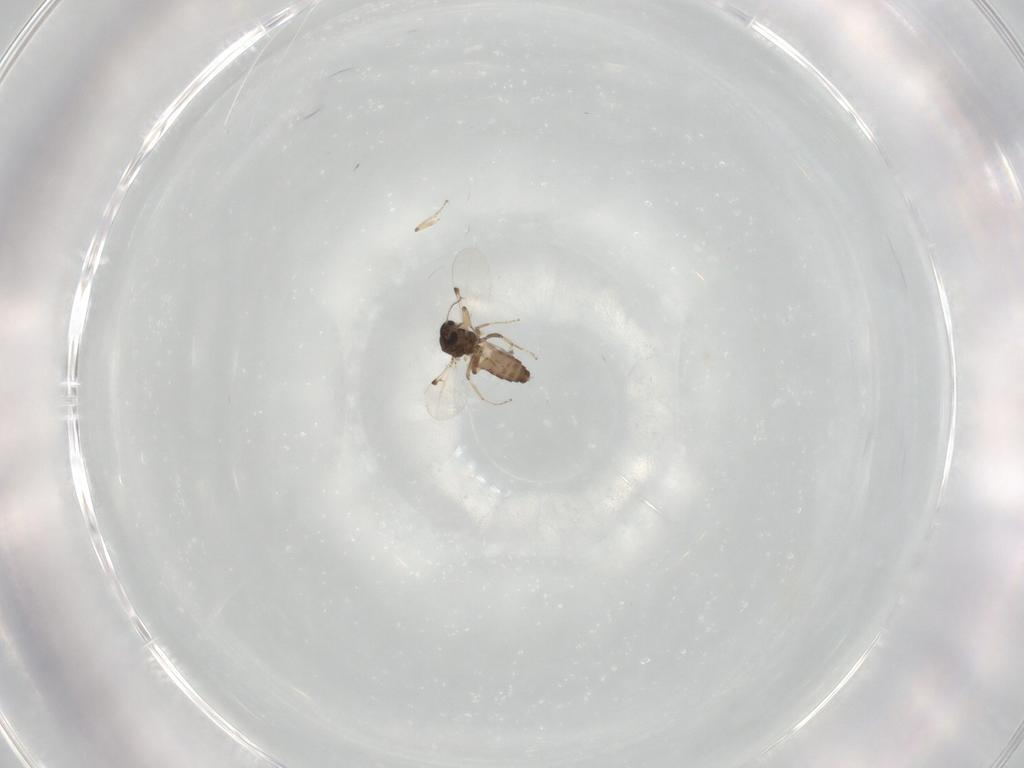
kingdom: Animalia
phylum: Arthropoda
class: Insecta
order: Diptera
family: Ceratopogonidae
